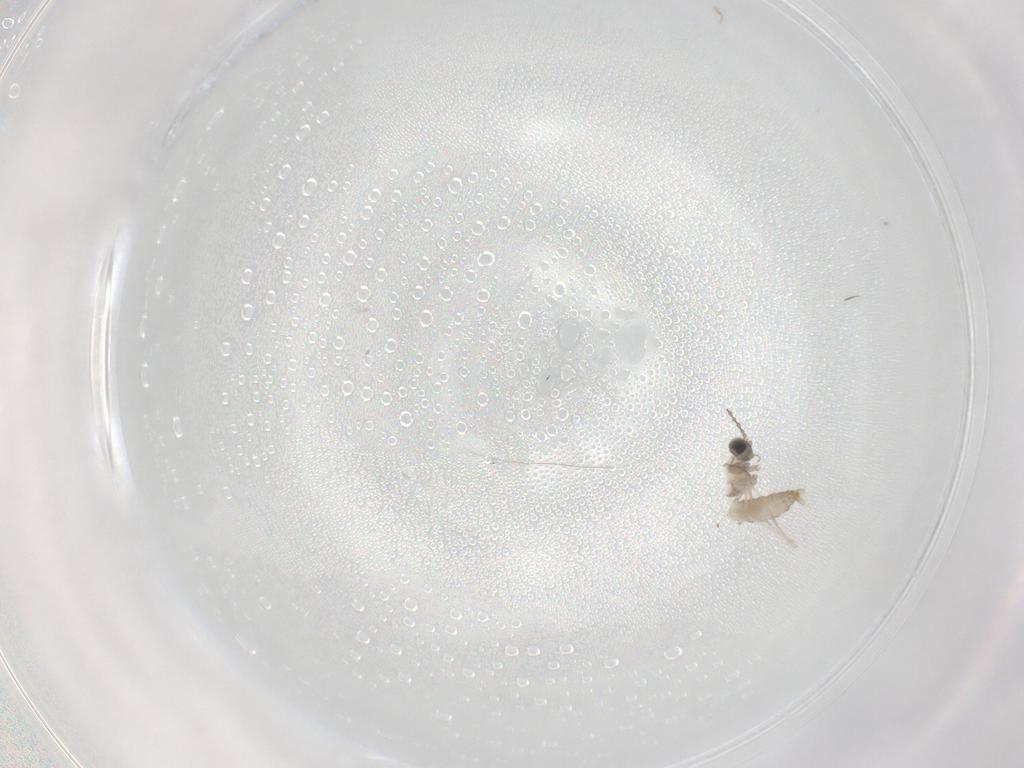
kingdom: Animalia
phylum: Arthropoda
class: Insecta
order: Diptera
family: Cecidomyiidae
